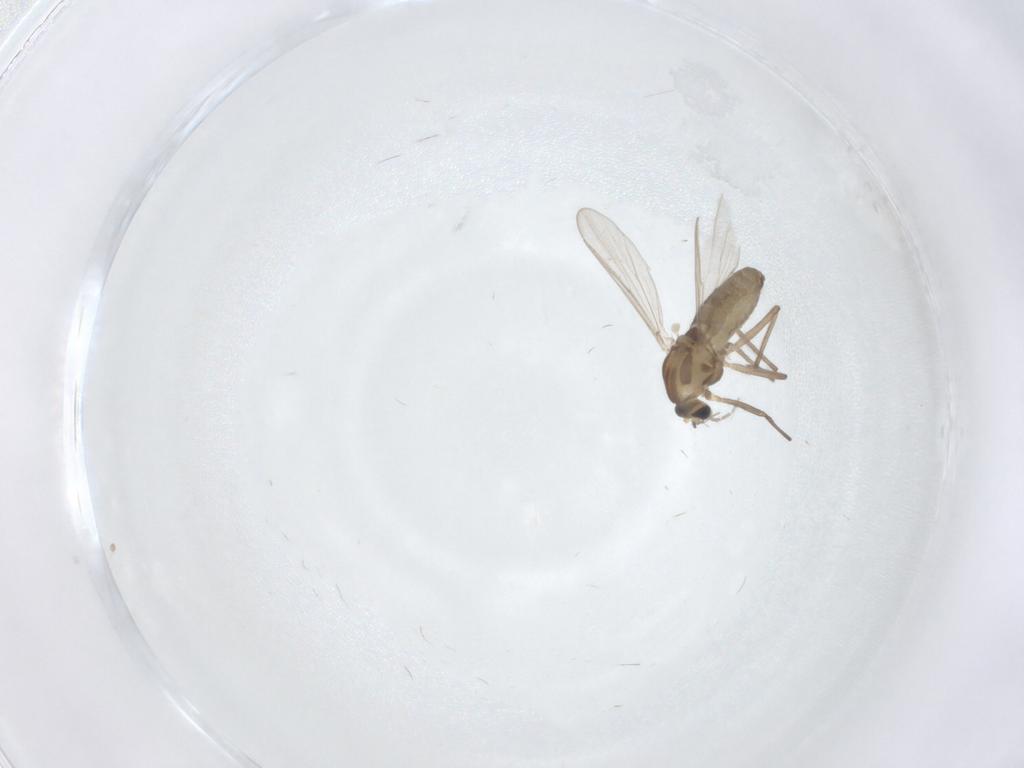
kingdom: Animalia
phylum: Arthropoda
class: Insecta
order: Diptera
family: Chironomidae
